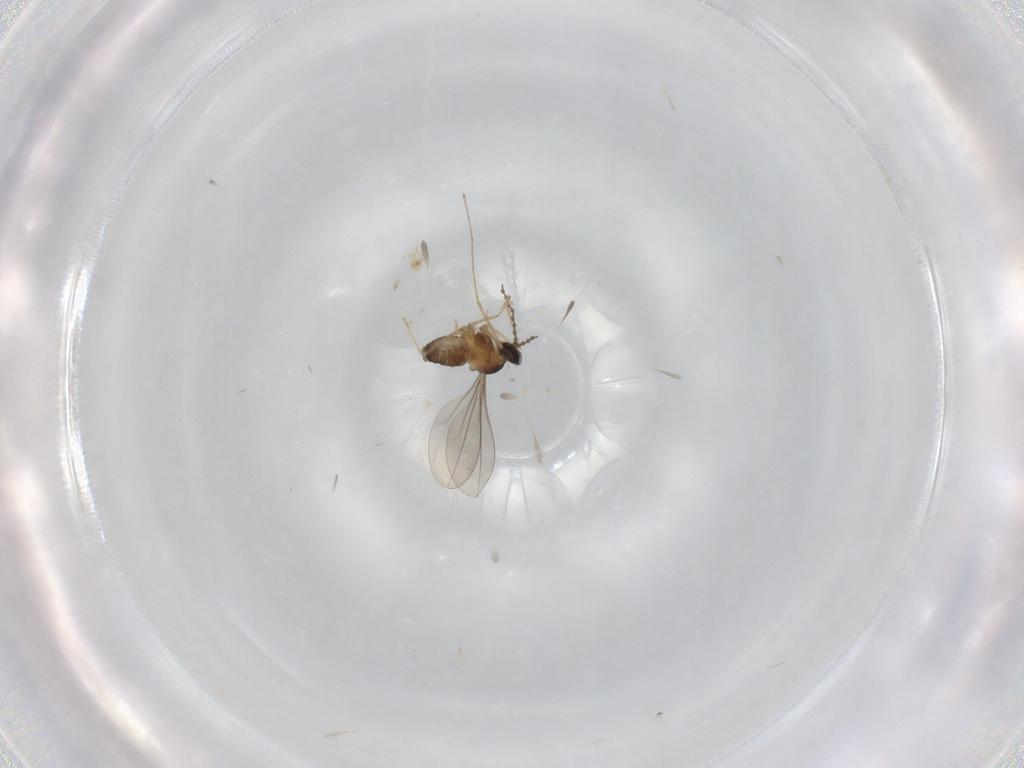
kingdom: Animalia
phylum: Arthropoda
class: Insecta
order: Diptera
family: Cecidomyiidae
